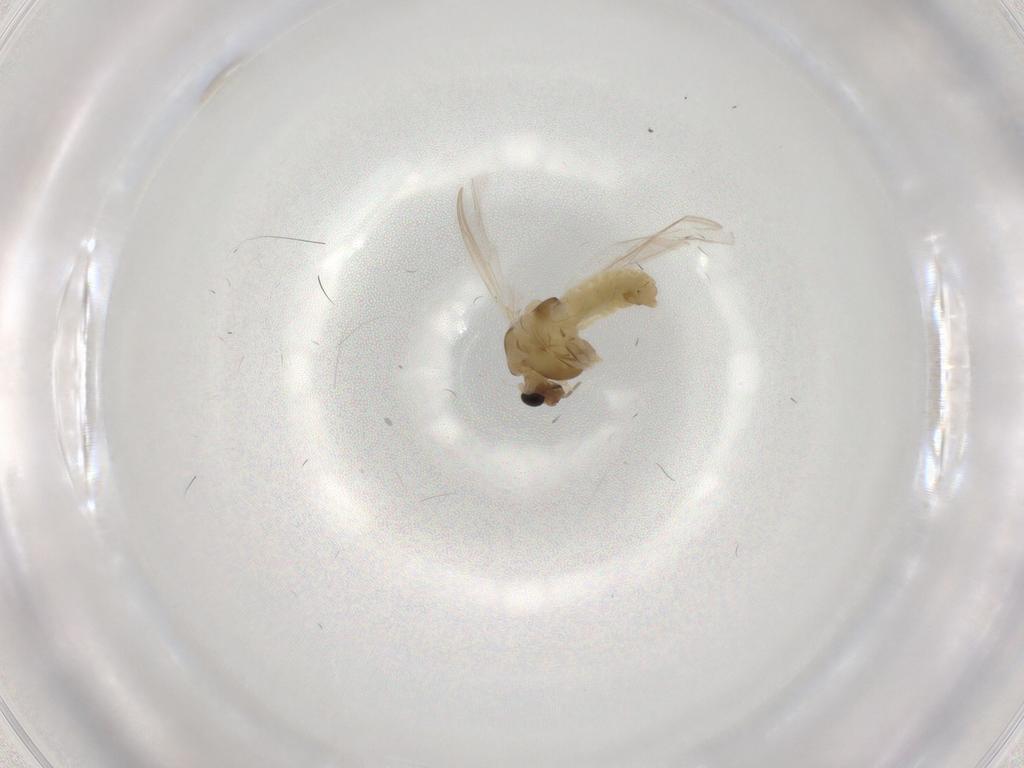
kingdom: Animalia
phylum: Arthropoda
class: Insecta
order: Diptera
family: Chironomidae
